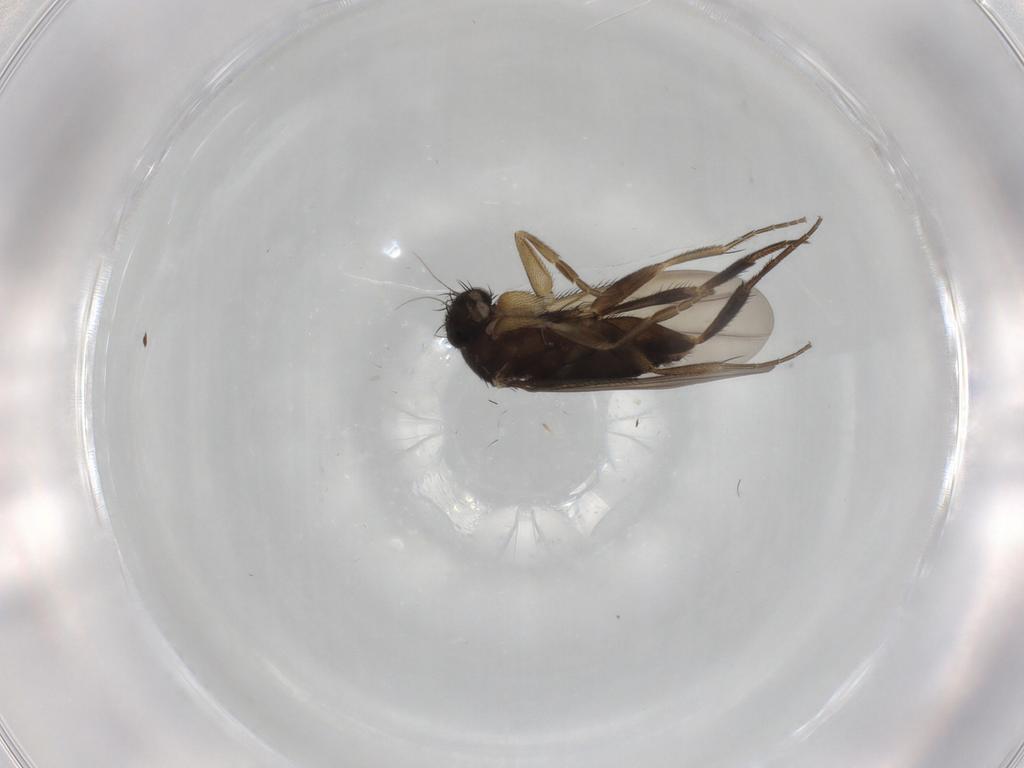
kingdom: Animalia
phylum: Arthropoda
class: Insecta
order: Diptera
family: Phoridae
